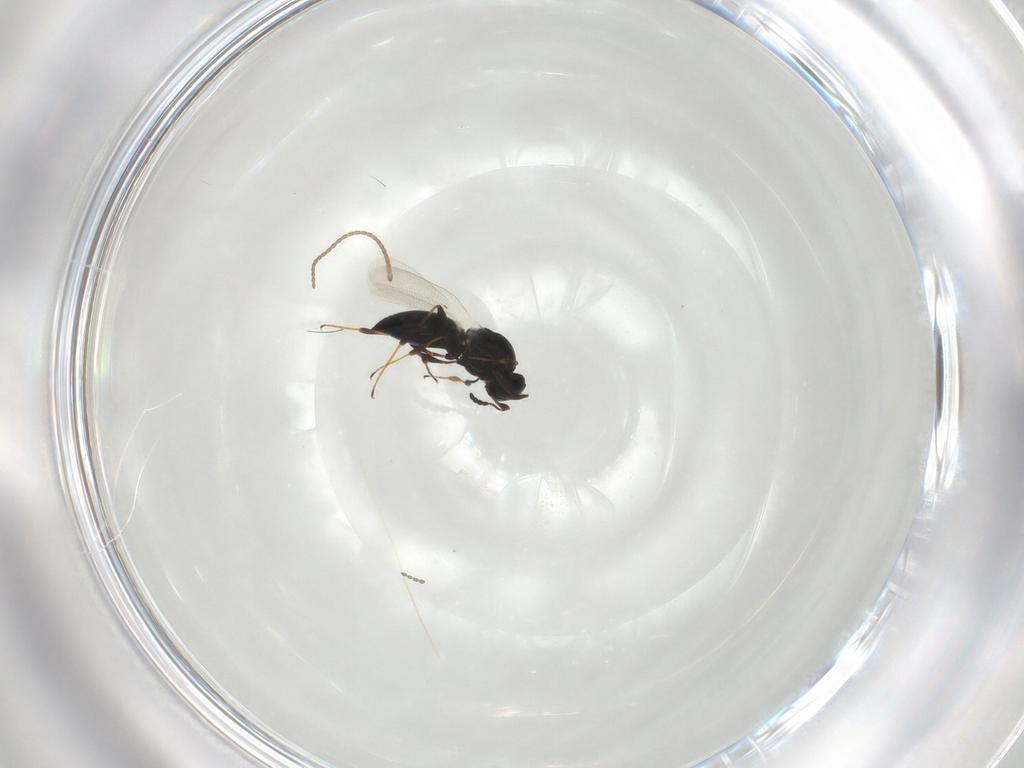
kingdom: Animalia
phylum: Arthropoda
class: Insecta
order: Hymenoptera
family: Platygastridae
